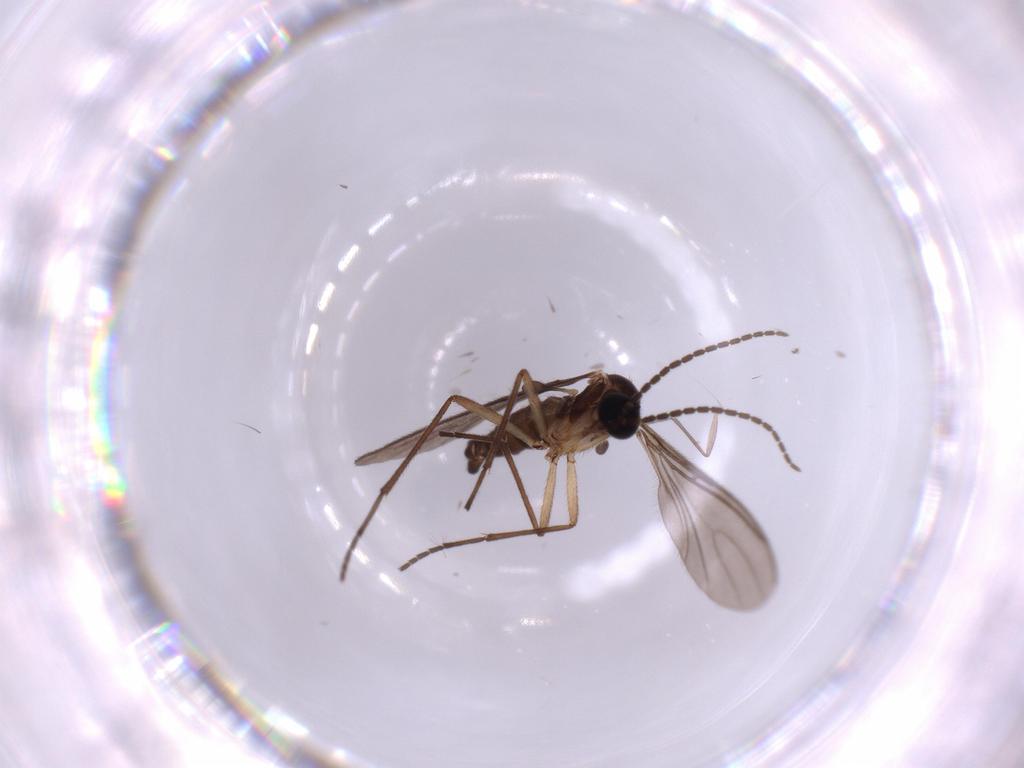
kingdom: Animalia
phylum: Arthropoda
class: Insecta
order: Diptera
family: Sciaridae
